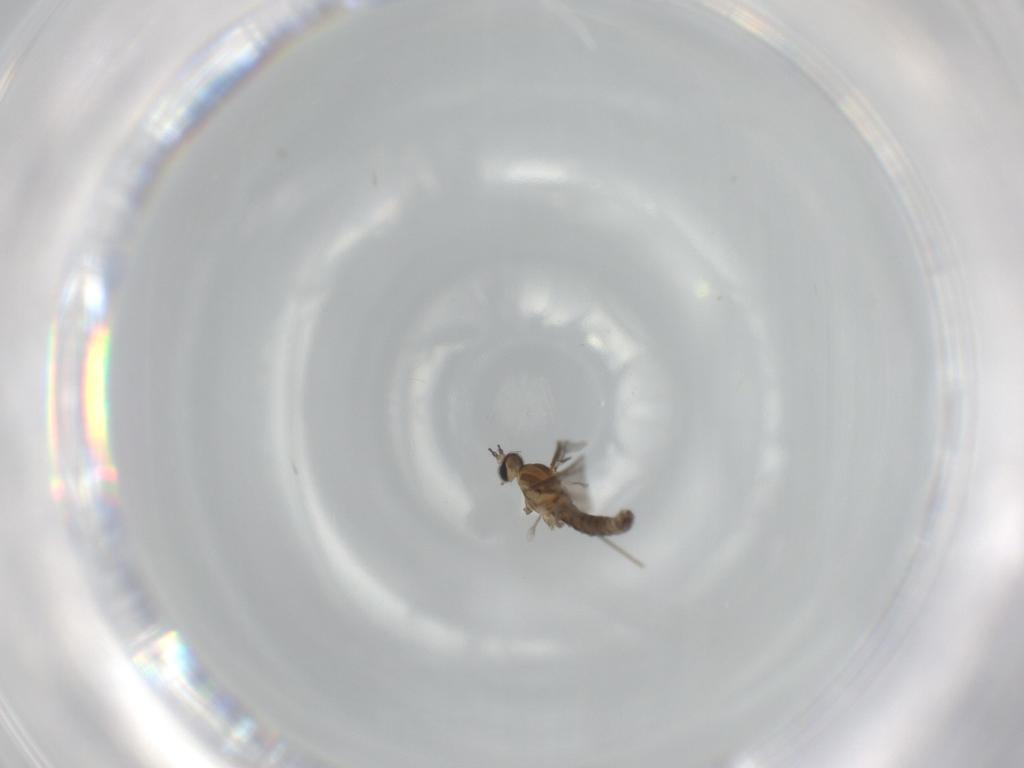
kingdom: Animalia
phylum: Arthropoda
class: Insecta
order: Diptera
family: Cecidomyiidae
